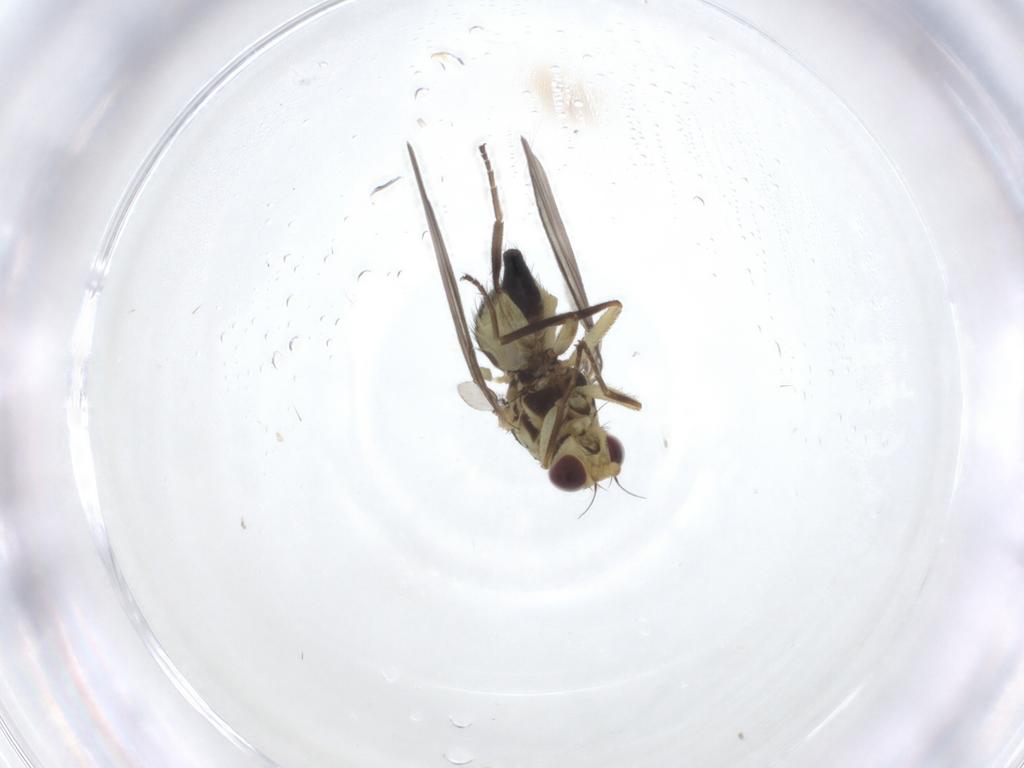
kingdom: Animalia
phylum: Arthropoda
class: Insecta
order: Diptera
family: Agromyzidae
